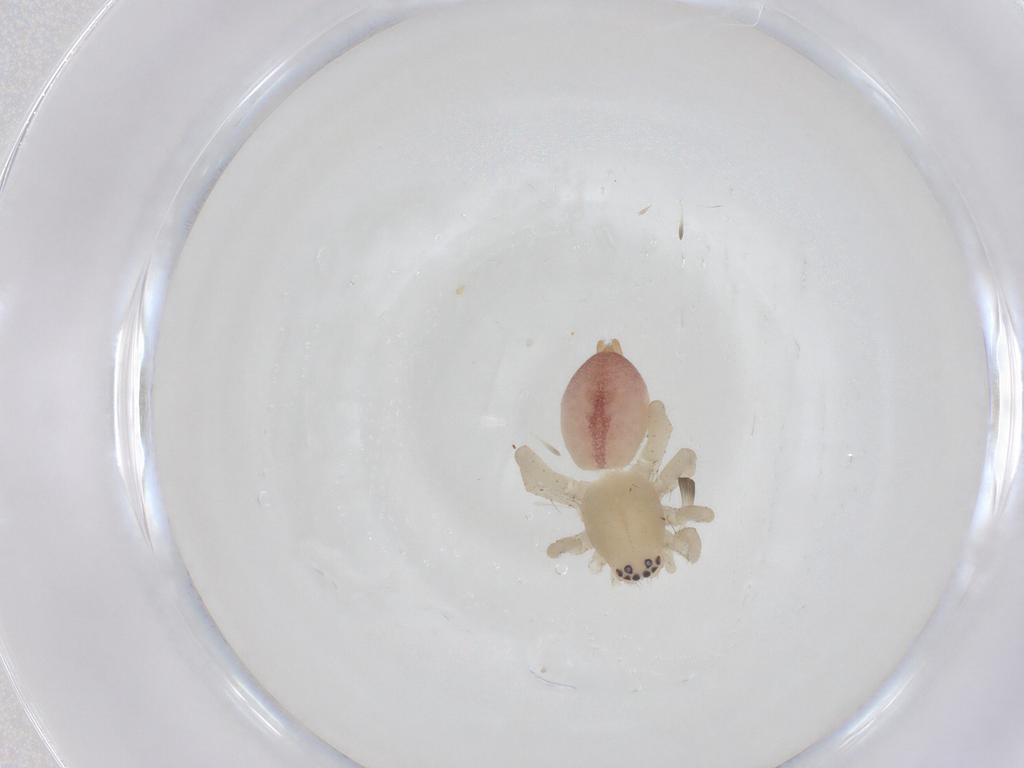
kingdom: Animalia
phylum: Arthropoda
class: Arachnida
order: Araneae
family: Clubionidae
